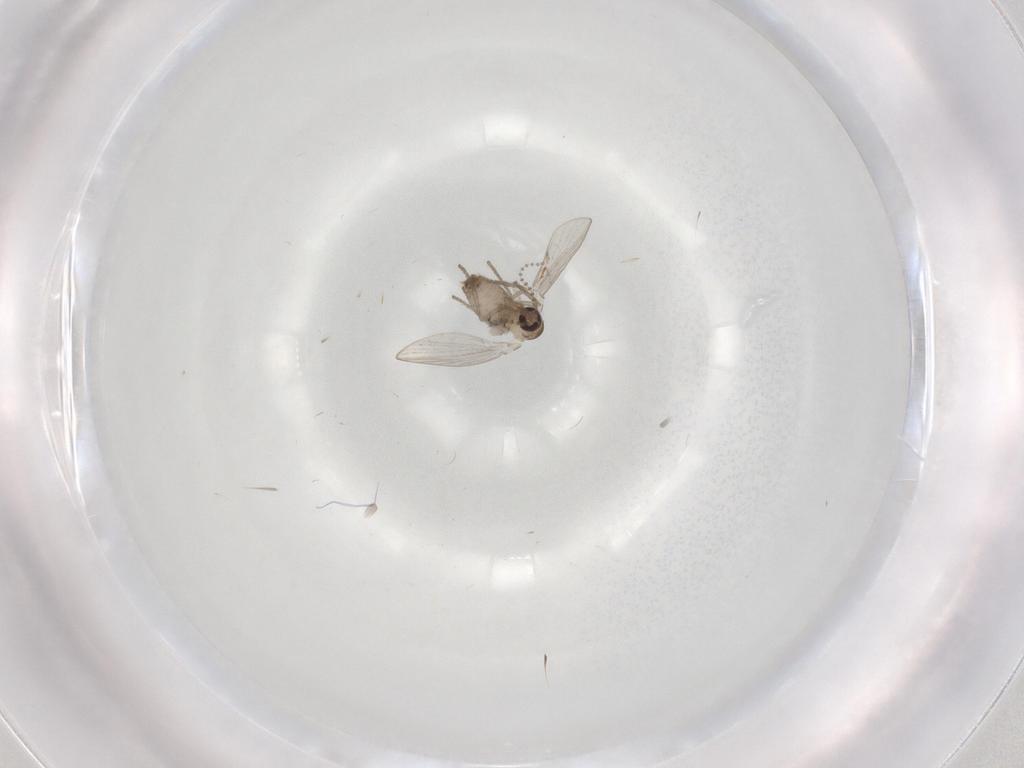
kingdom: Animalia
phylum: Arthropoda
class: Insecta
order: Diptera
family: Psychodidae
